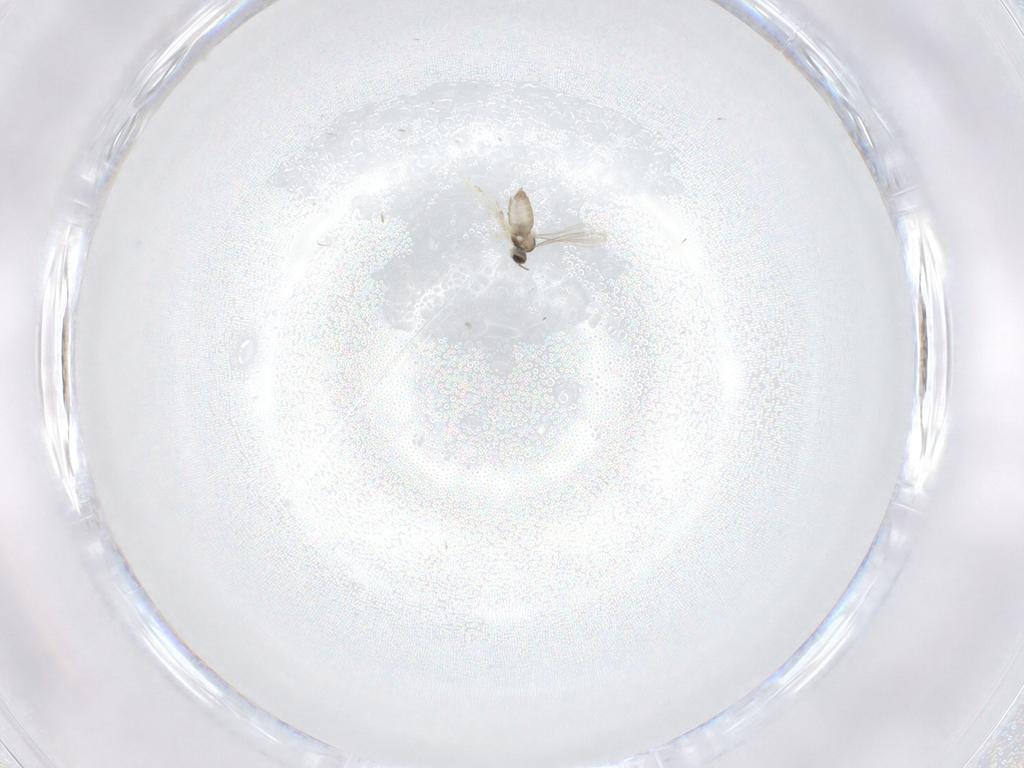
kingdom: Animalia
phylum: Arthropoda
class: Insecta
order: Diptera
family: Cecidomyiidae
